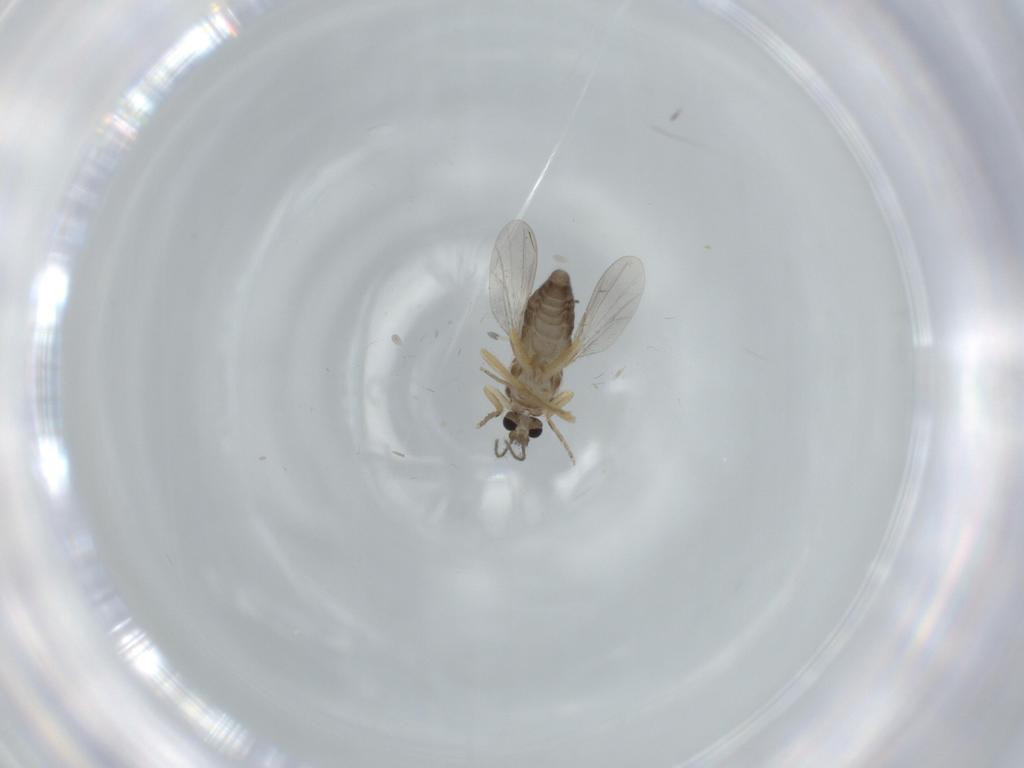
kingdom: Animalia
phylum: Arthropoda
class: Insecta
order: Diptera
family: Ceratopogonidae
